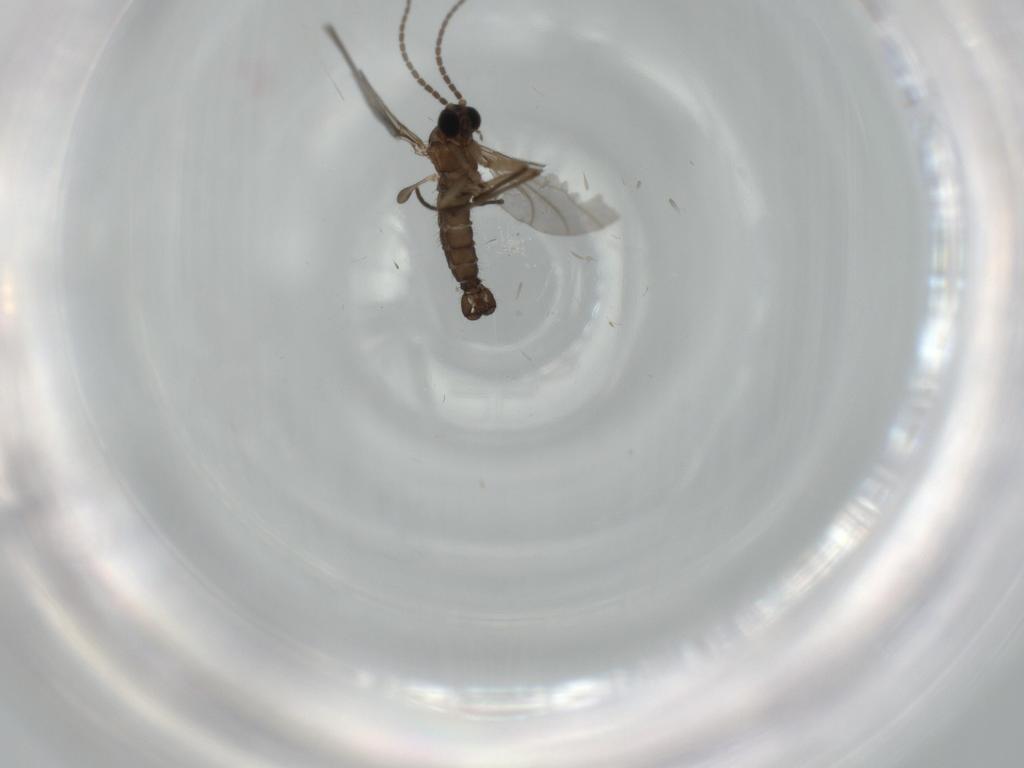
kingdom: Animalia
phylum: Arthropoda
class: Insecta
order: Diptera
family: Sciaridae
